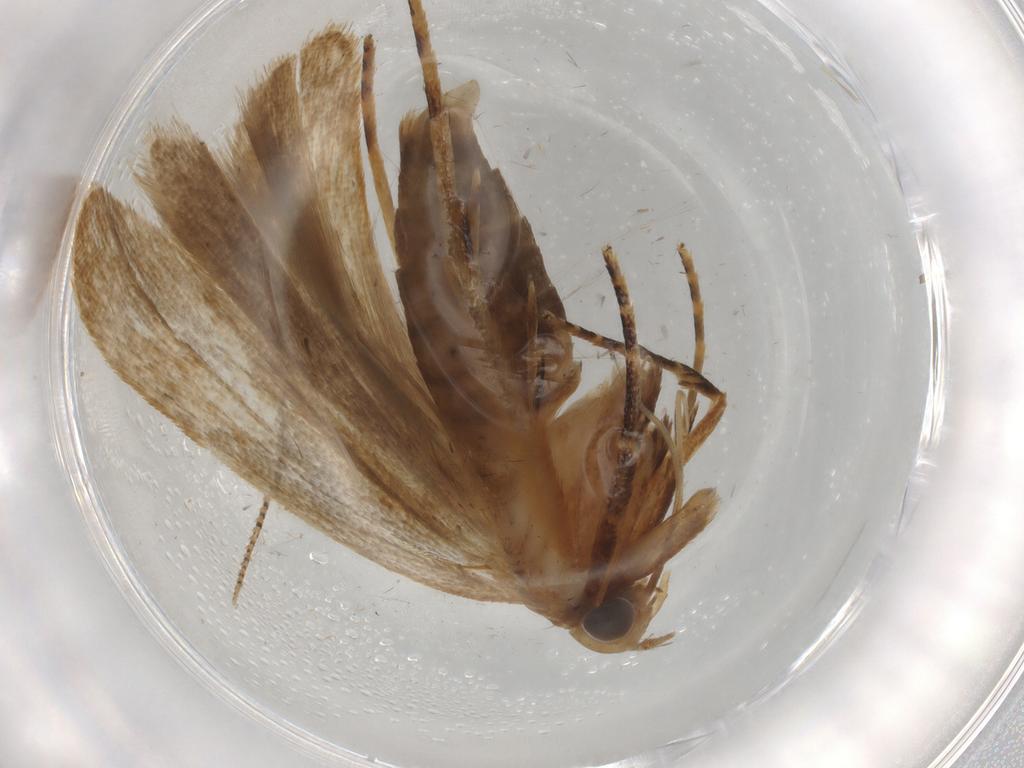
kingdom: Animalia
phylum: Arthropoda
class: Insecta
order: Lepidoptera
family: Gelechiidae
